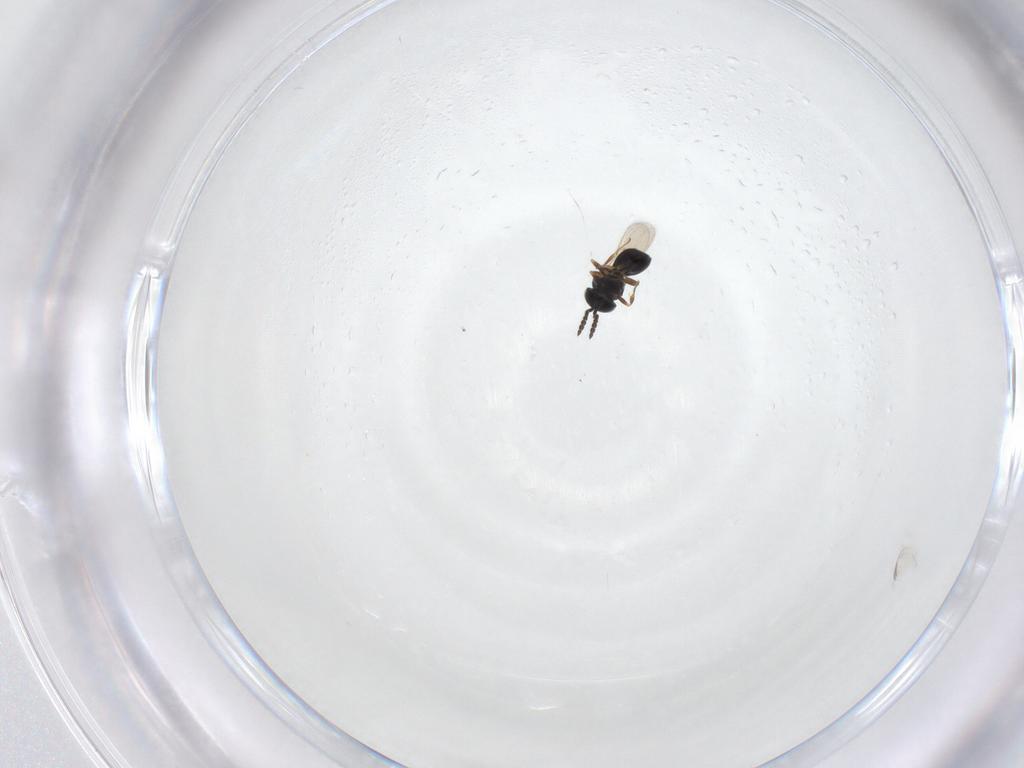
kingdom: Animalia
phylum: Arthropoda
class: Insecta
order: Hymenoptera
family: Scelionidae
